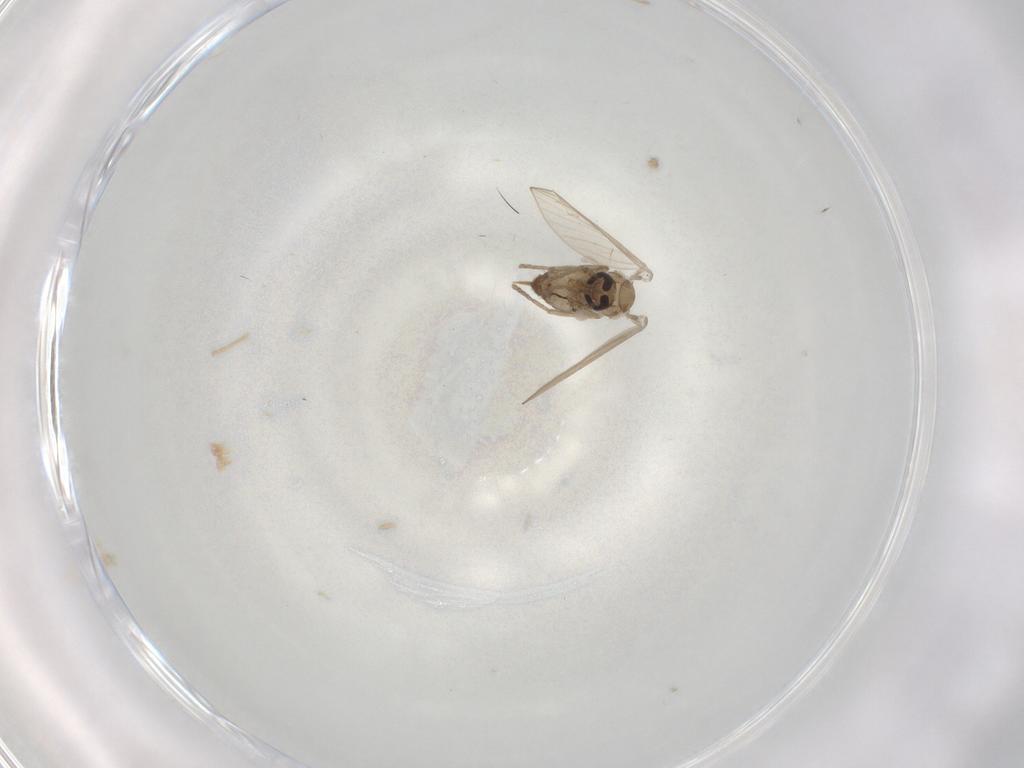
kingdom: Animalia
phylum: Arthropoda
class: Insecta
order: Diptera
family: Psychodidae
